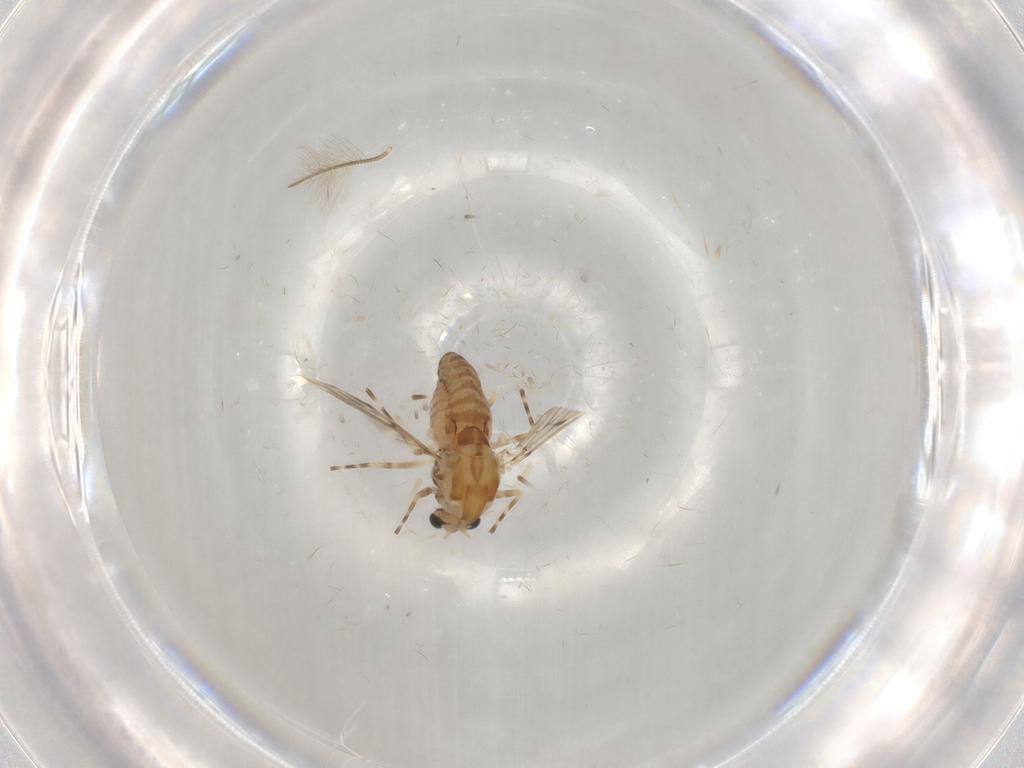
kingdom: Animalia
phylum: Arthropoda
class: Insecta
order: Diptera
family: Chironomidae
